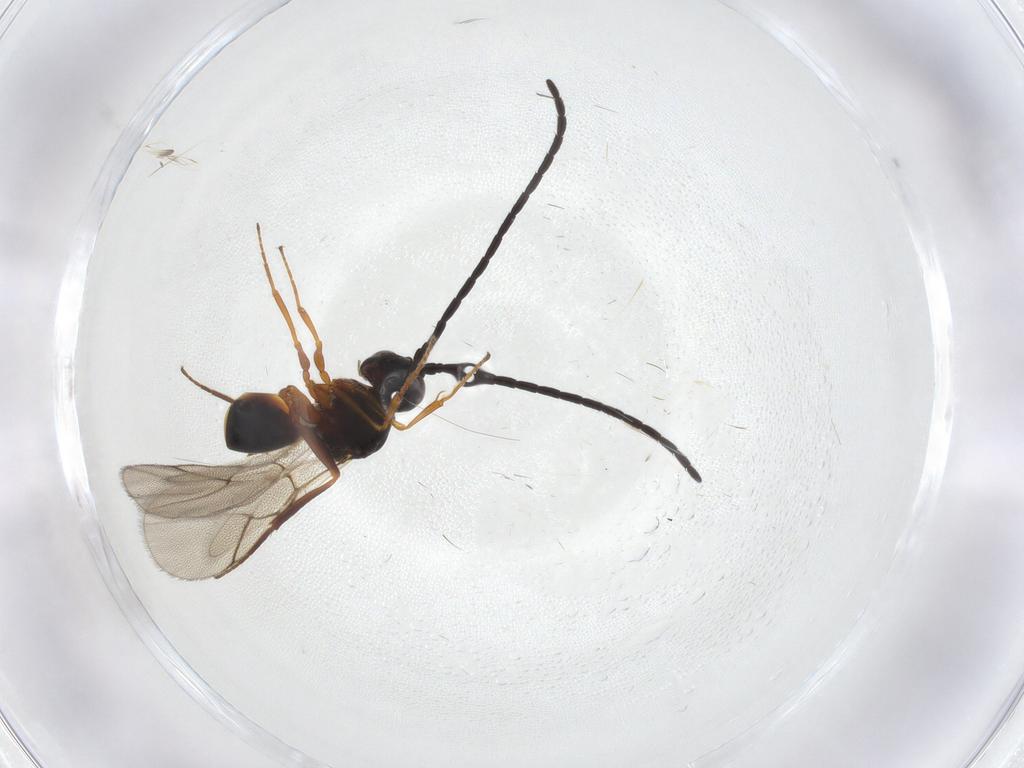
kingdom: Animalia
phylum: Arthropoda
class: Insecta
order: Hymenoptera
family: Figitidae
